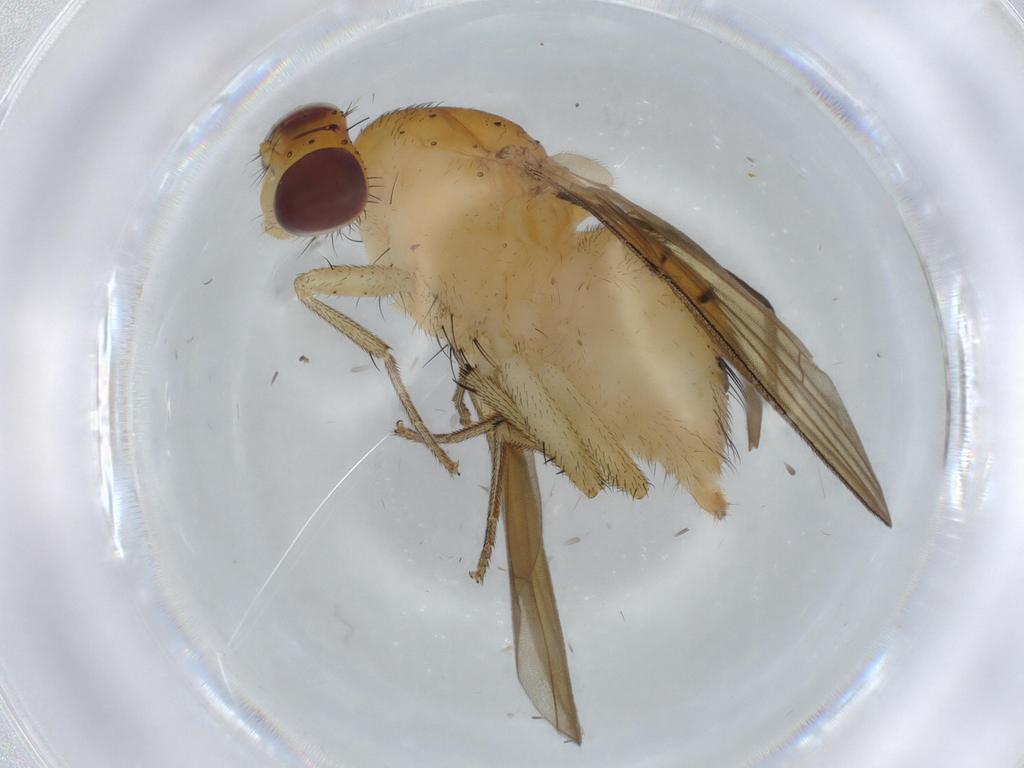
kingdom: Animalia
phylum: Arthropoda
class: Insecta
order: Diptera
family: Sciaridae
